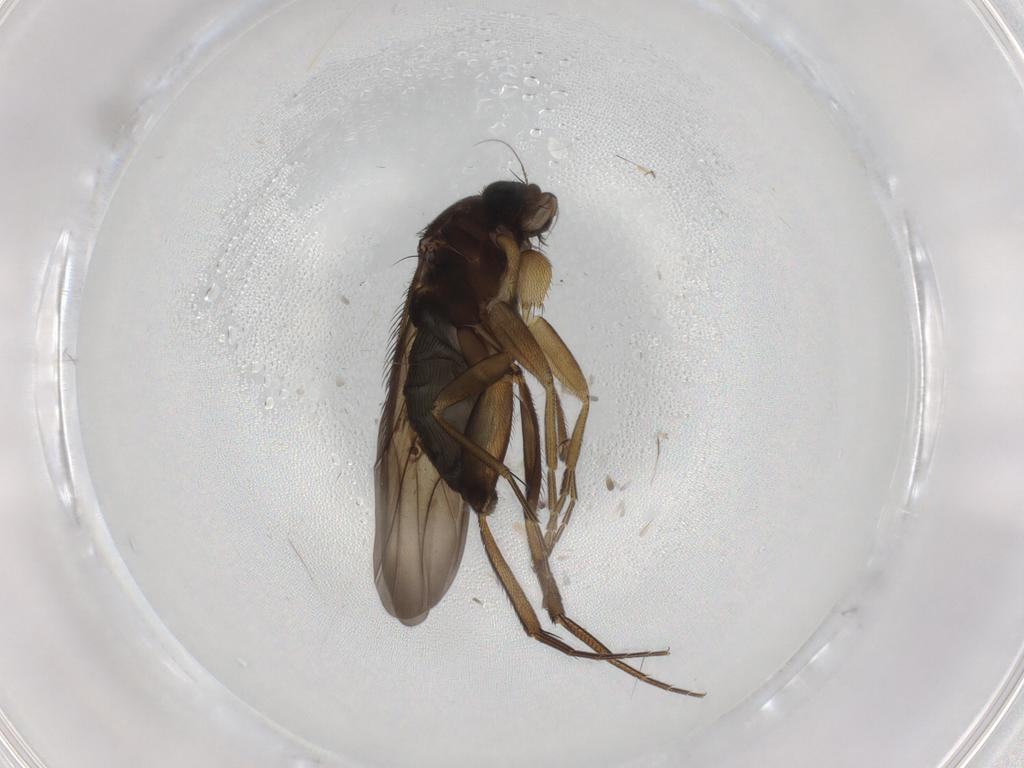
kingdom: Animalia
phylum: Arthropoda
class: Insecta
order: Diptera
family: Phoridae
